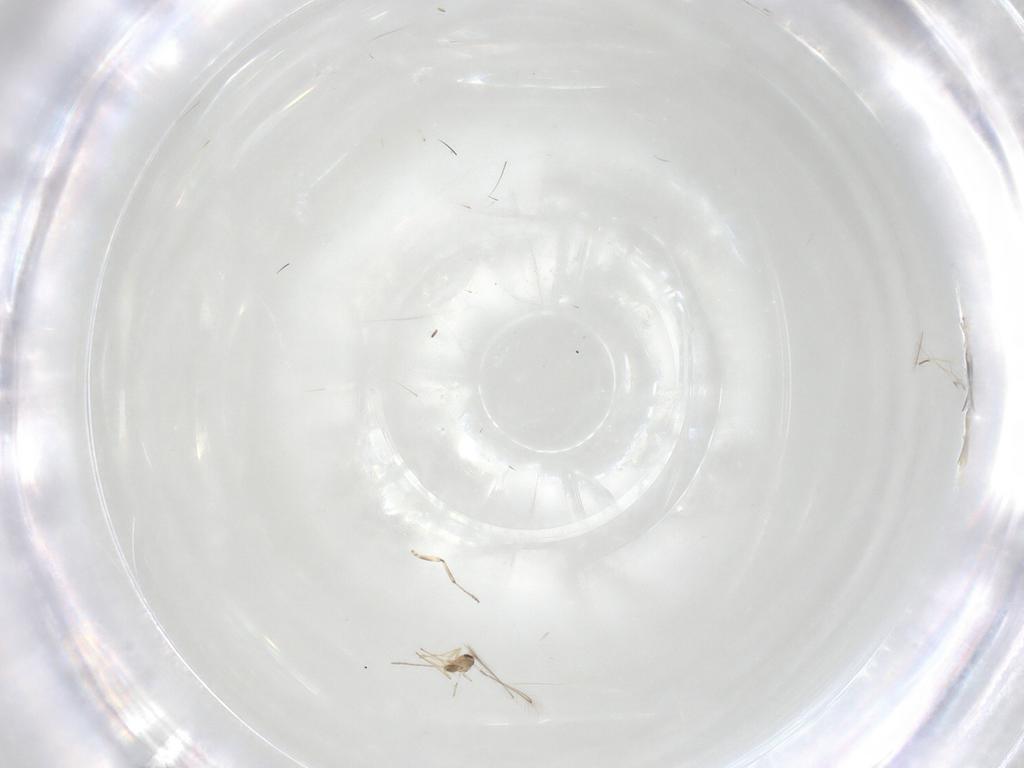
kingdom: Animalia
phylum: Arthropoda
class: Insecta
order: Diptera
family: Ceratopogonidae
